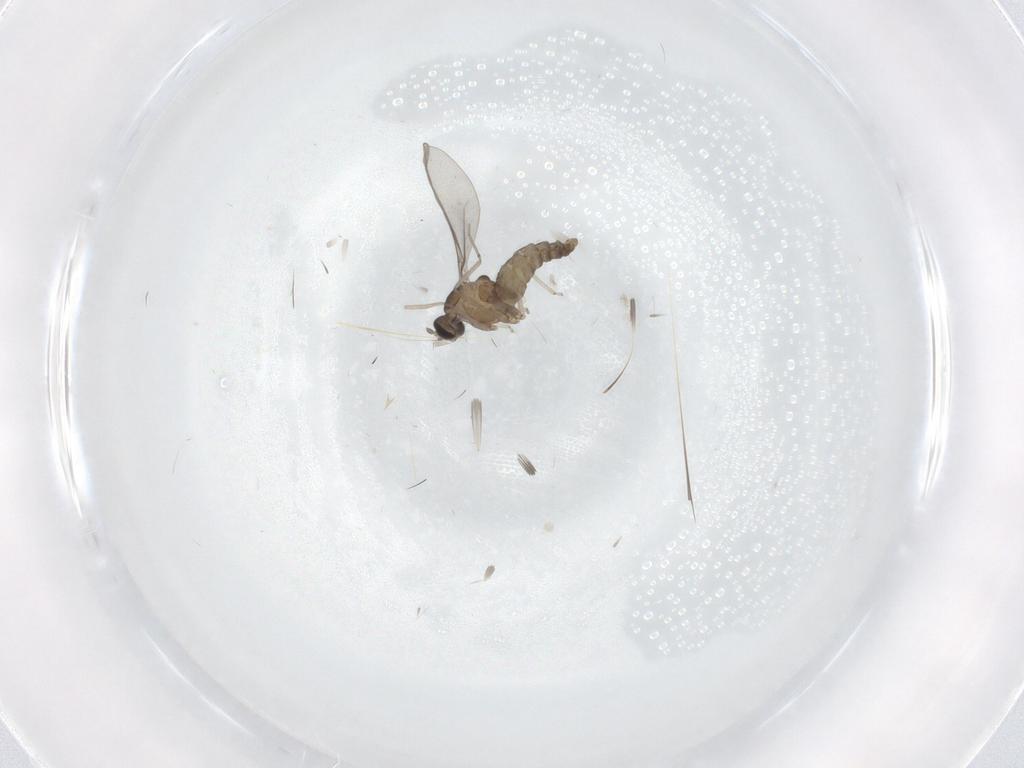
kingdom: Animalia
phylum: Arthropoda
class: Insecta
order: Diptera
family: Cecidomyiidae
